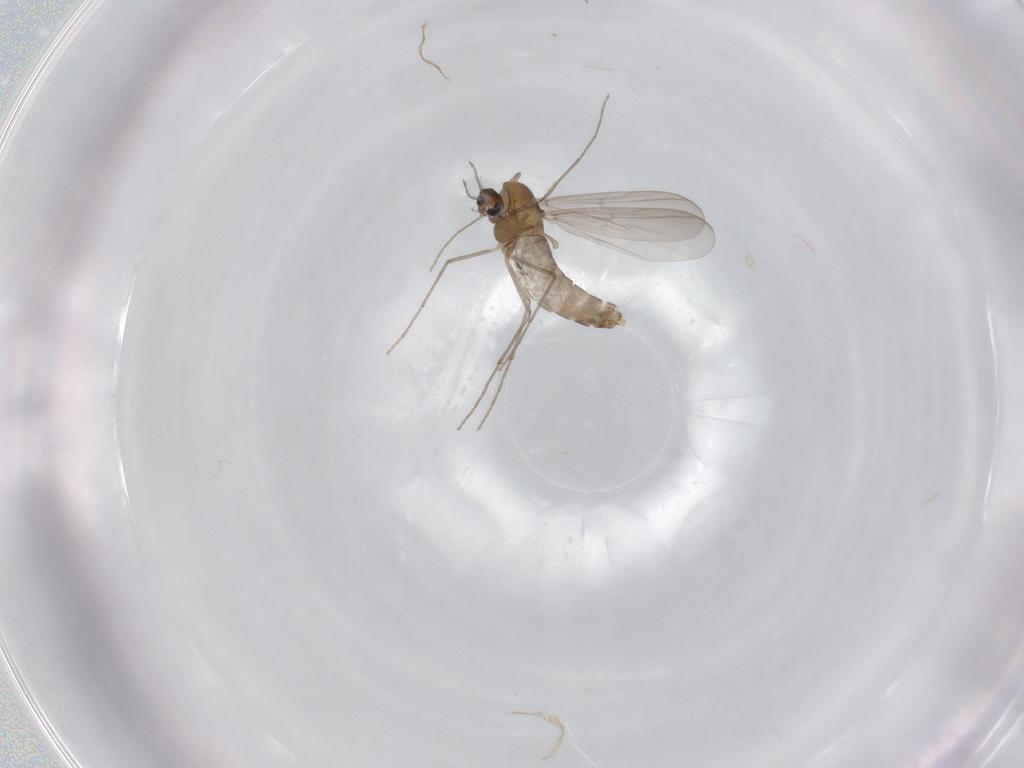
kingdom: Animalia
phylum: Arthropoda
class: Insecta
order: Diptera
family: Chironomidae
